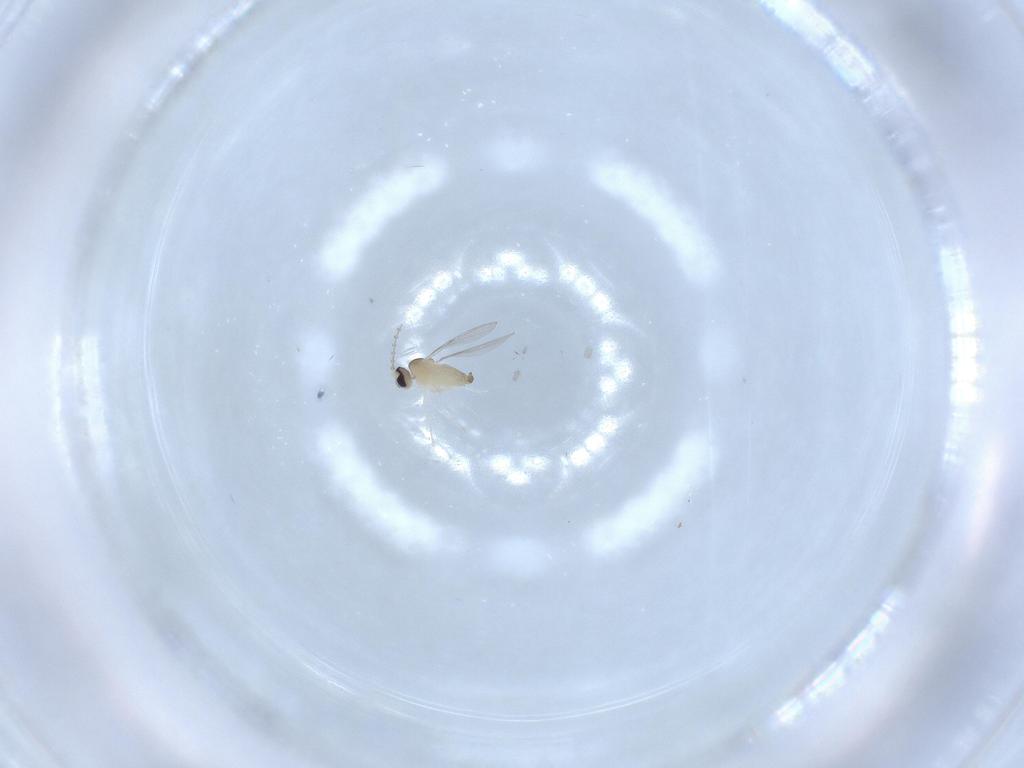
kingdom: Animalia
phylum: Arthropoda
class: Insecta
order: Diptera
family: Cecidomyiidae
